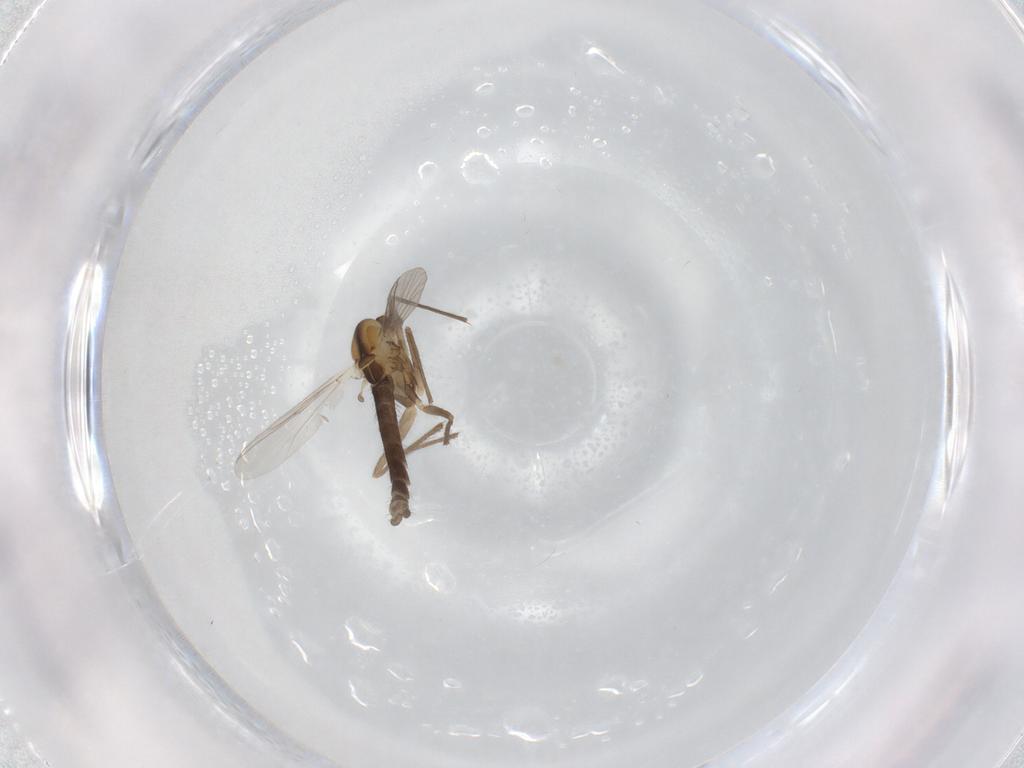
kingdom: Animalia
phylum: Arthropoda
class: Insecta
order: Diptera
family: Chironomidae
